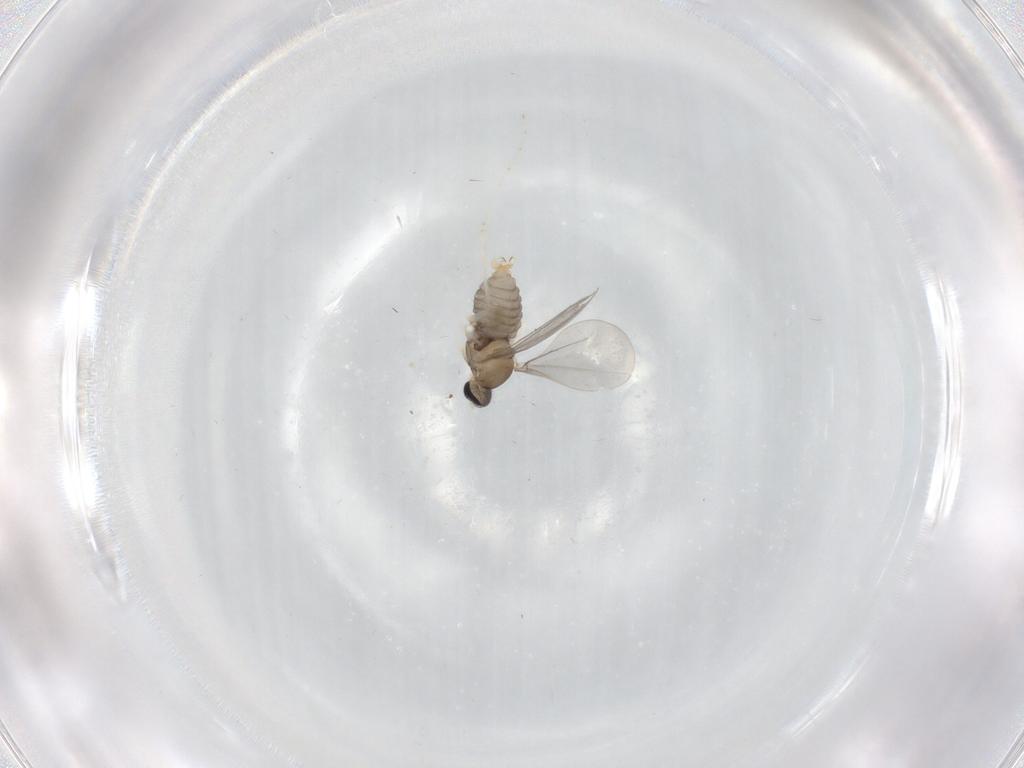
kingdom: Animalia
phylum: Arthropoda
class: Insecta
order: Diptera
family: Cecidomyiidae
